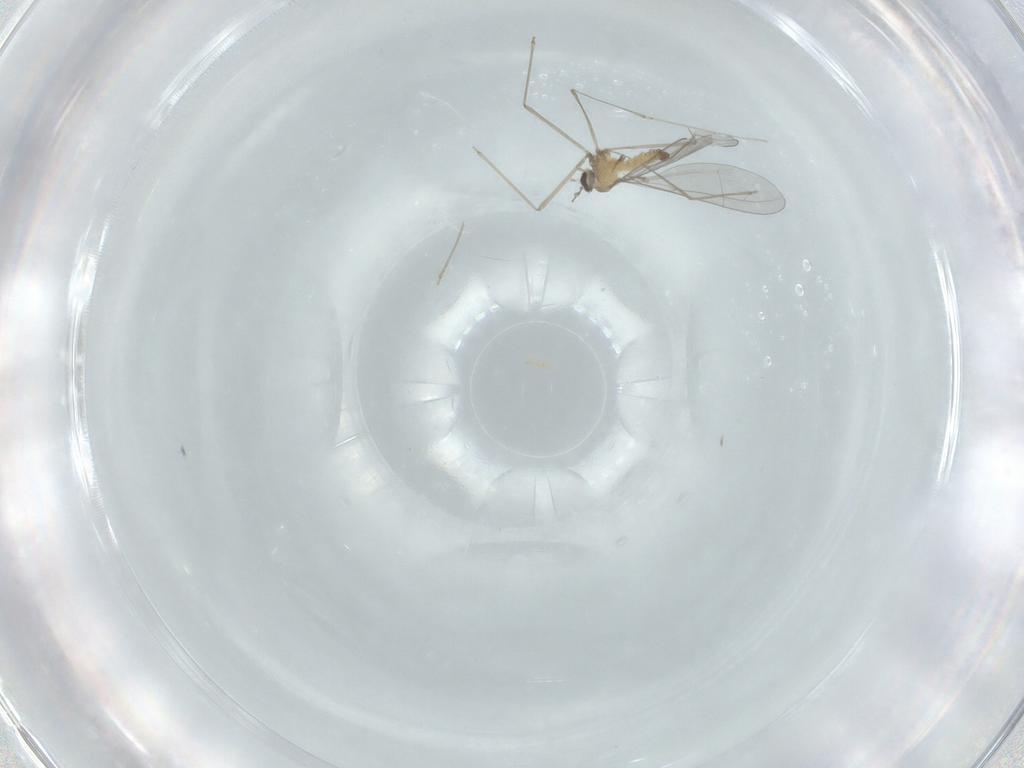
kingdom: Animalia
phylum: Arthropoda
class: Insecta
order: Diptera
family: Cecidomyiidae
